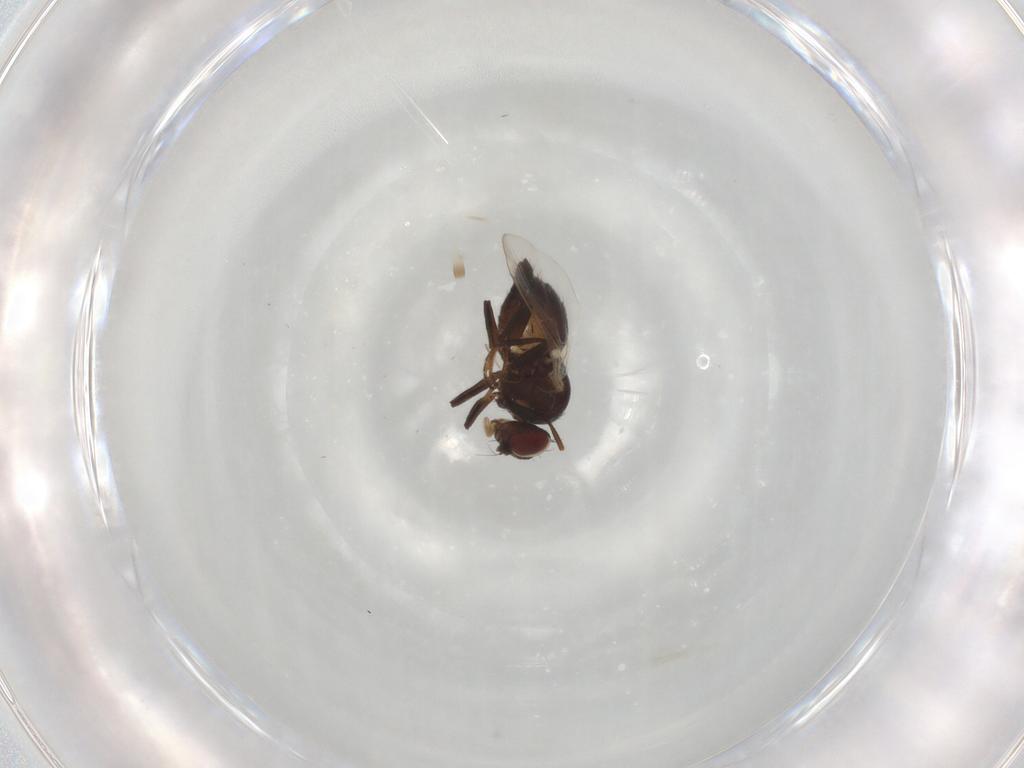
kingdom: Animalia
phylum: Arthropoda
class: Insecta
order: Diptera
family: Agromyzidae
